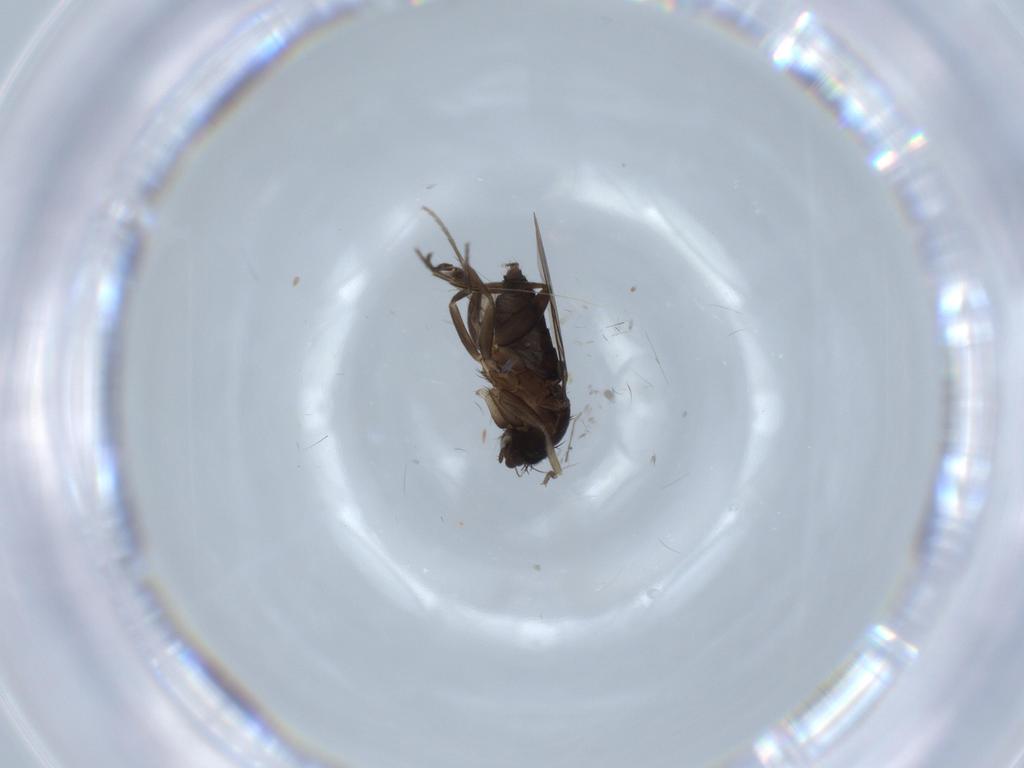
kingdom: Animalia
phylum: Arthropoda
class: Insecta
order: Diptera
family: Phoridae
